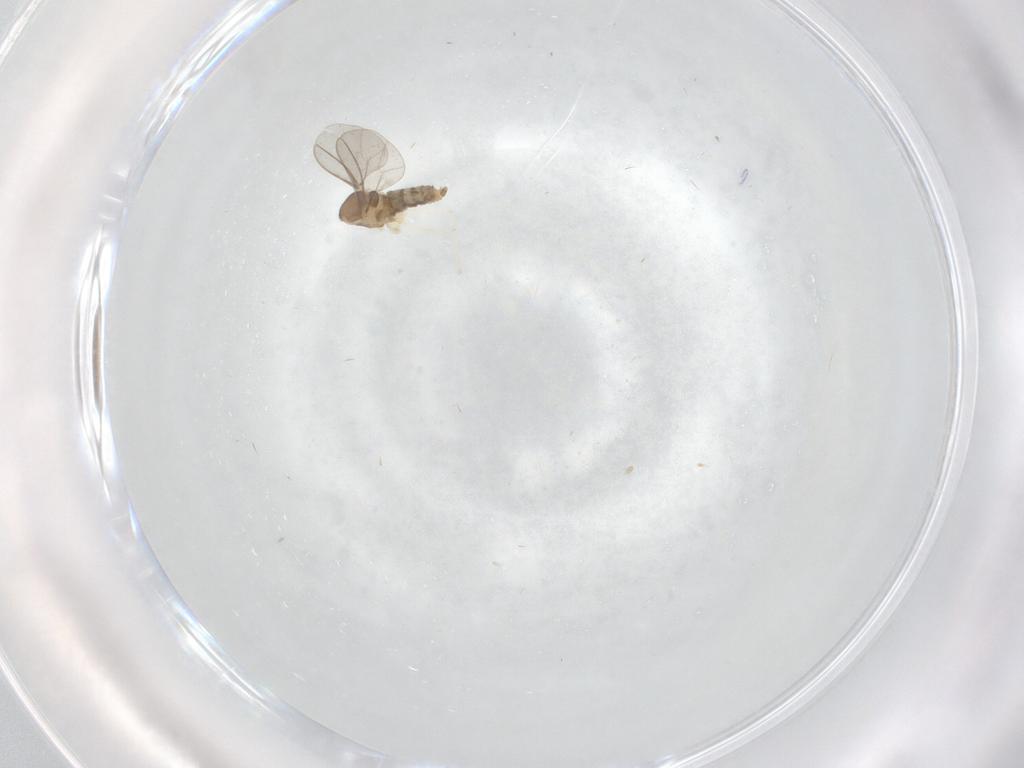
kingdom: Animalia
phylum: Arthropoda
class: Insecta
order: Diptera
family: Cecidomyiidae
